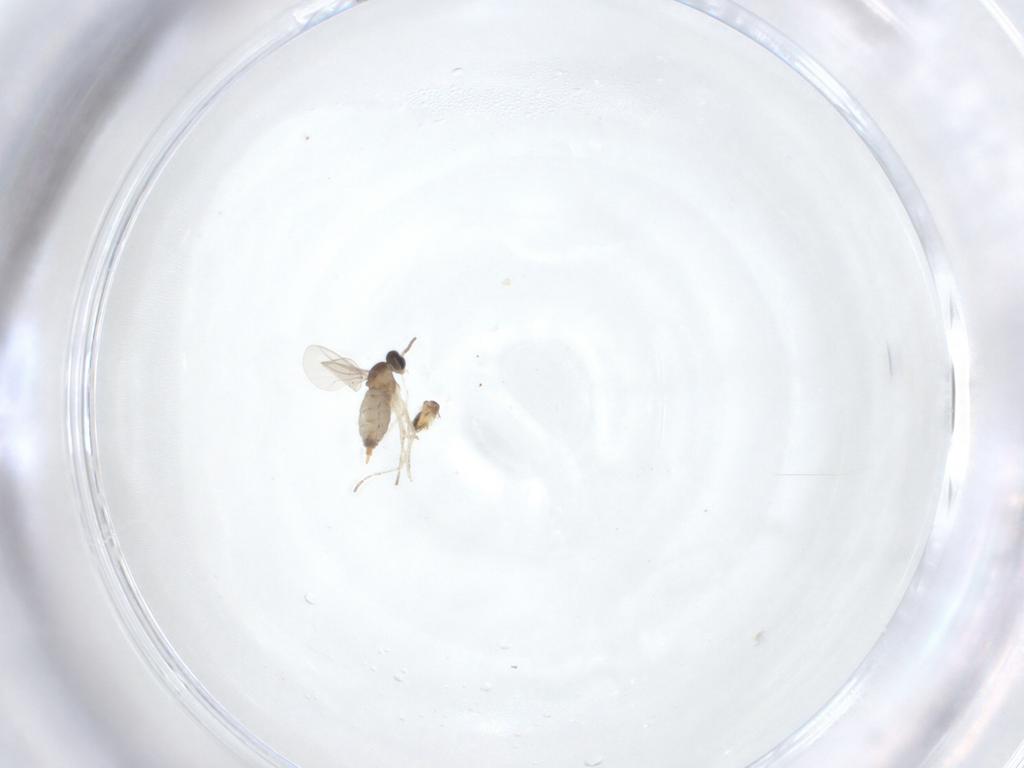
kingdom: Animalia
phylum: Arthropoda
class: Insecta
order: Diptera
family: Cecidomyiidae
